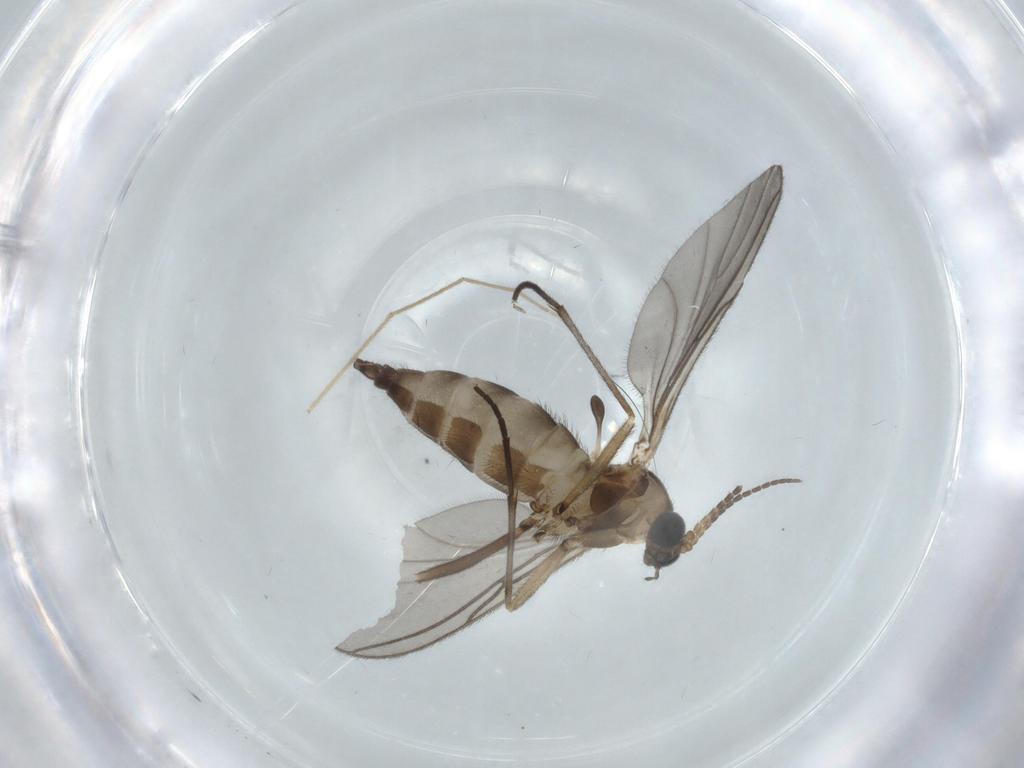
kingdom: Animalia
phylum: Arthropoda
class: Insecta
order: Diptera
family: Sciaridae
